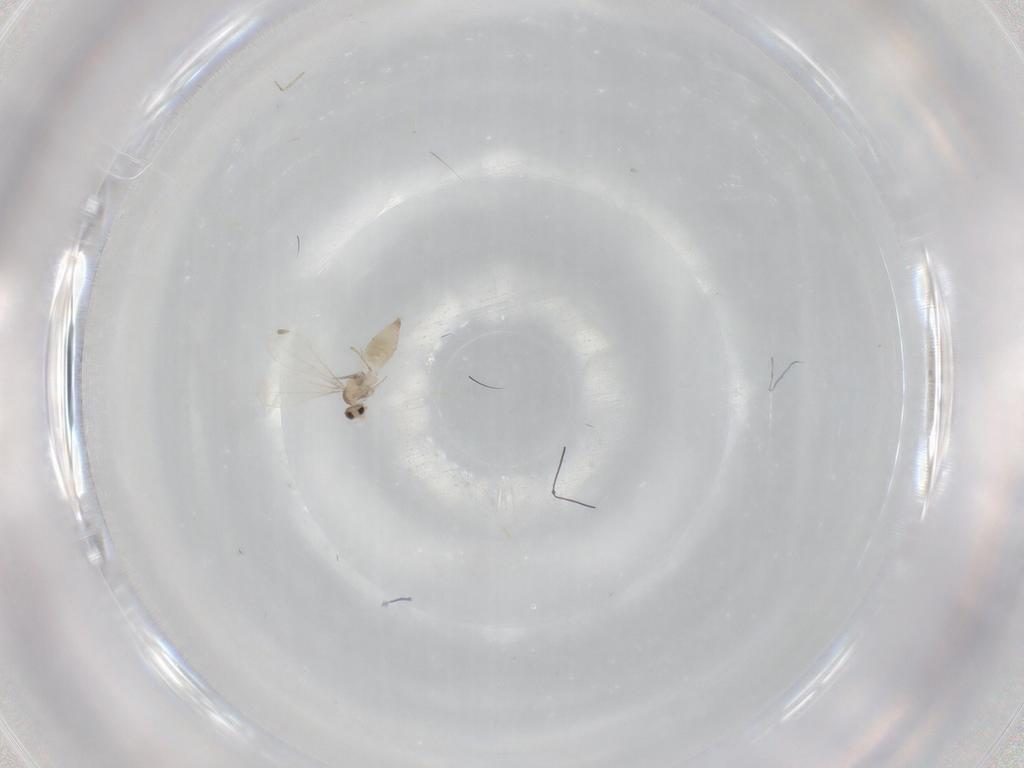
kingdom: Animalia
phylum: Arthropoda
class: Insecta
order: Diptera
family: Cecidomyiidae
